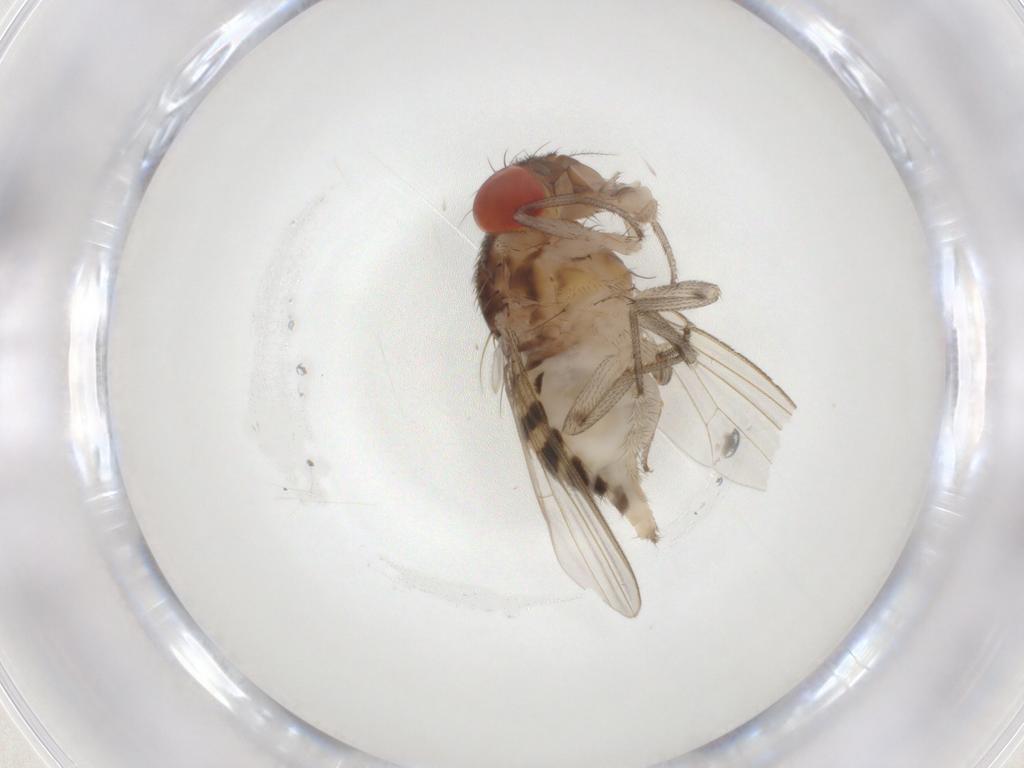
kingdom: Animalia
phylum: Arthropoda
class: Insecta
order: Diptera
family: Drosophilidae
